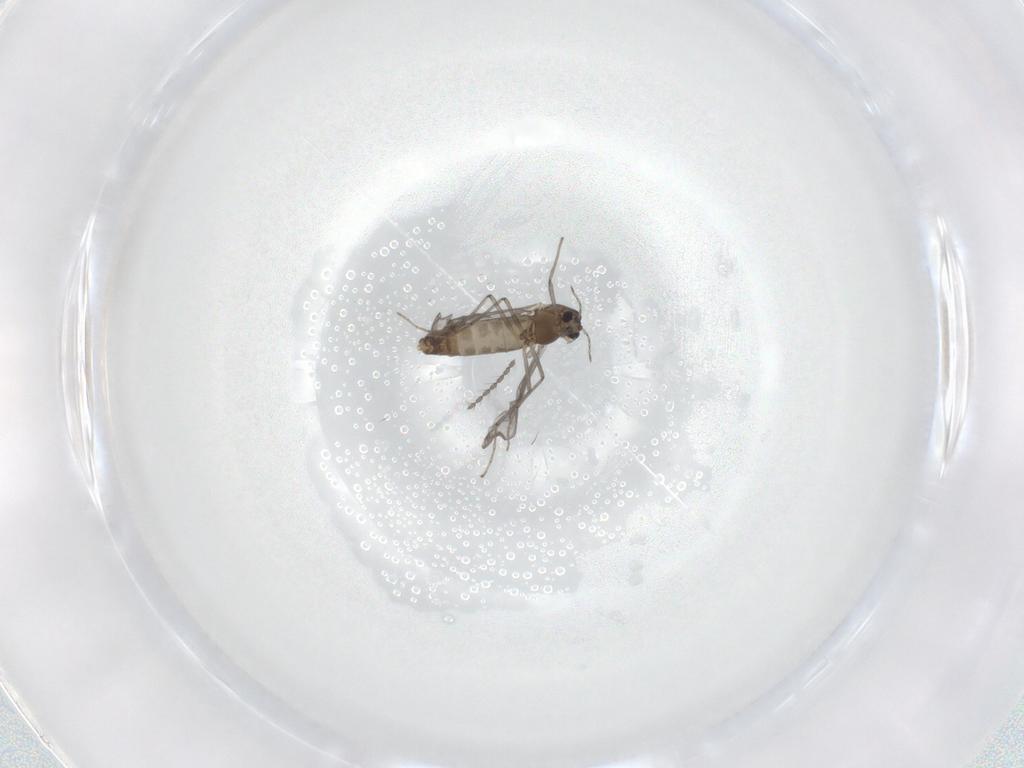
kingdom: Animalia
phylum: Arthropoda
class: Insecta
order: Diptera
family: Chironomidae
